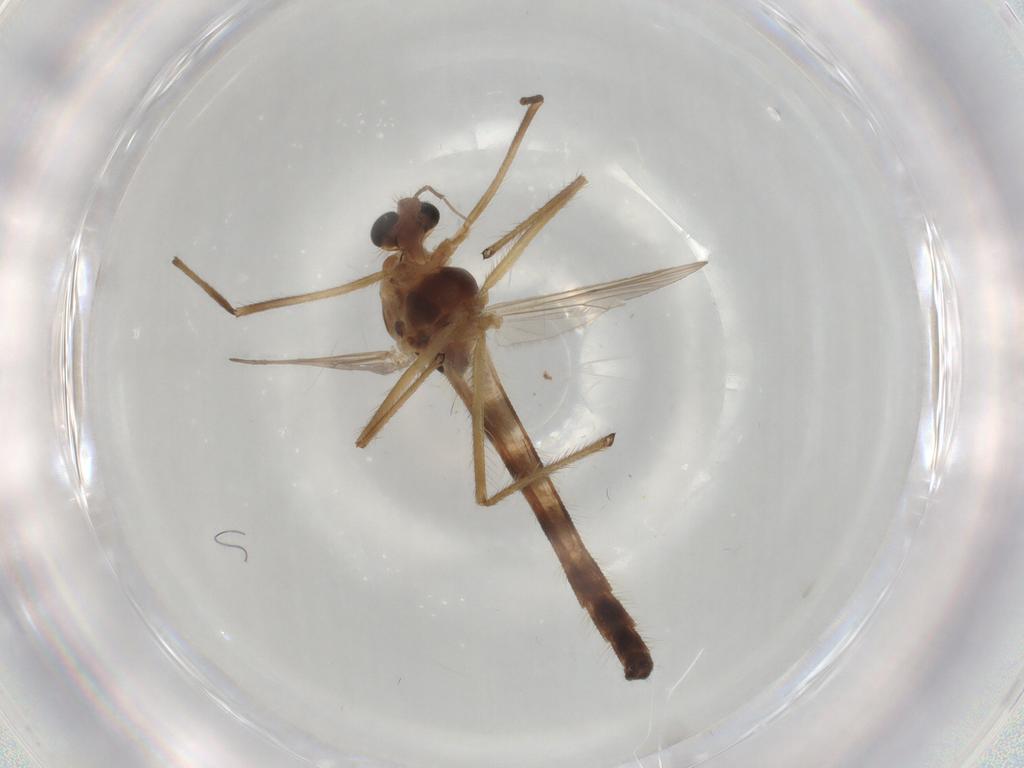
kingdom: Animalia
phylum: Arthropoda
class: Insecta
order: Diptera
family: Chironomidae
